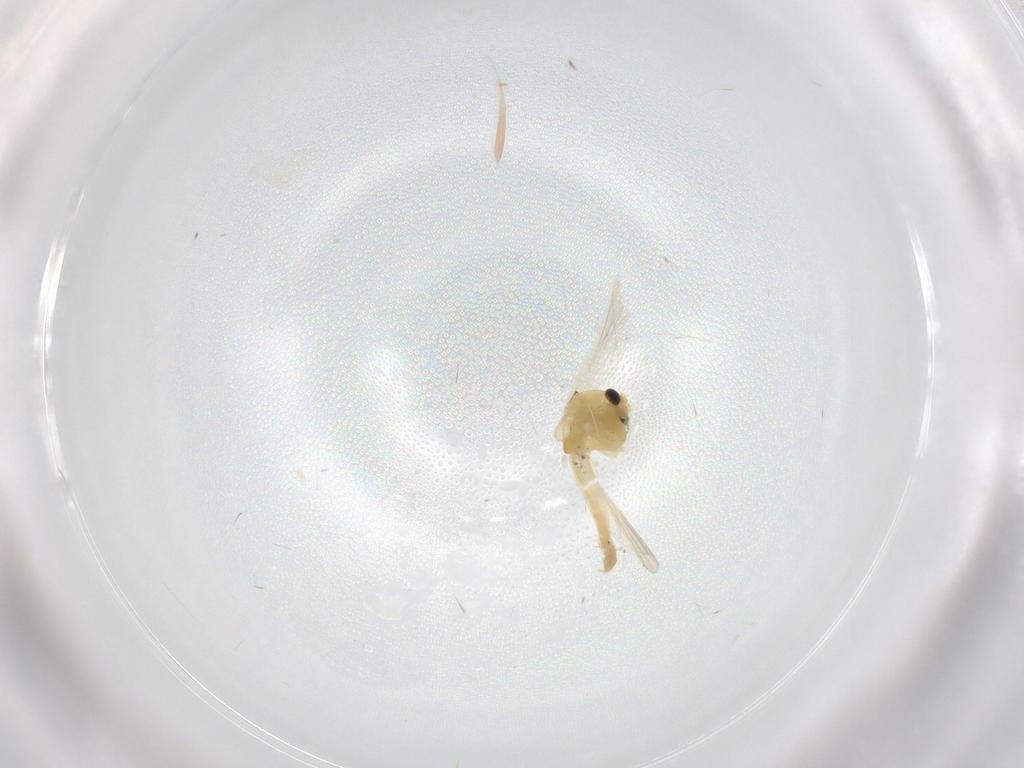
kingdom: Animalia
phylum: Arthropoda
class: Insecta
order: Diptera
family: Chironomidae
